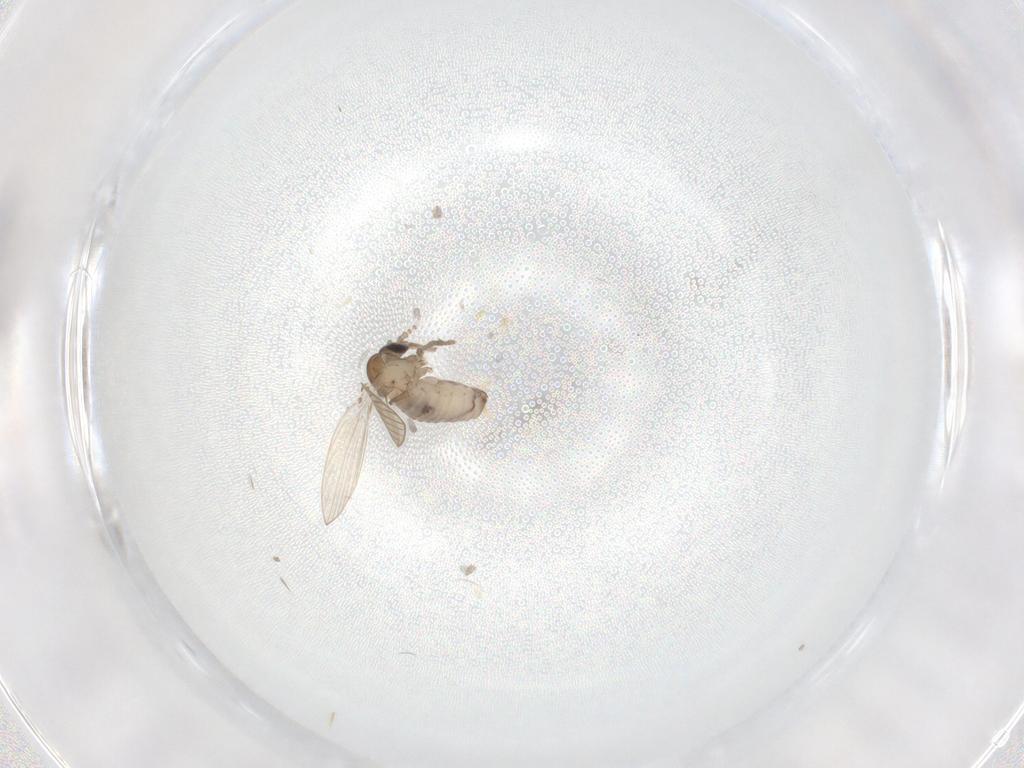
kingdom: Animalia
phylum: Arthropoda
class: Insecta
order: Diptera
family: Psychodidae
